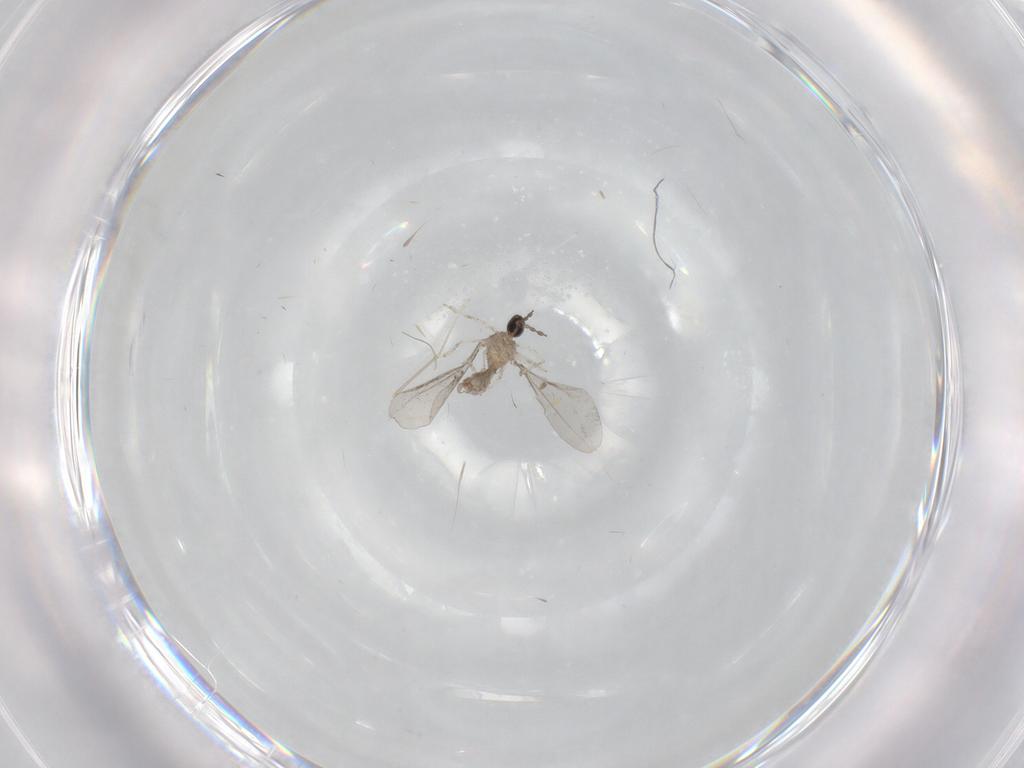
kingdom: Animalia
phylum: Arthropoda
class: Insecta
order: Diptera
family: Cecidomyiidae
